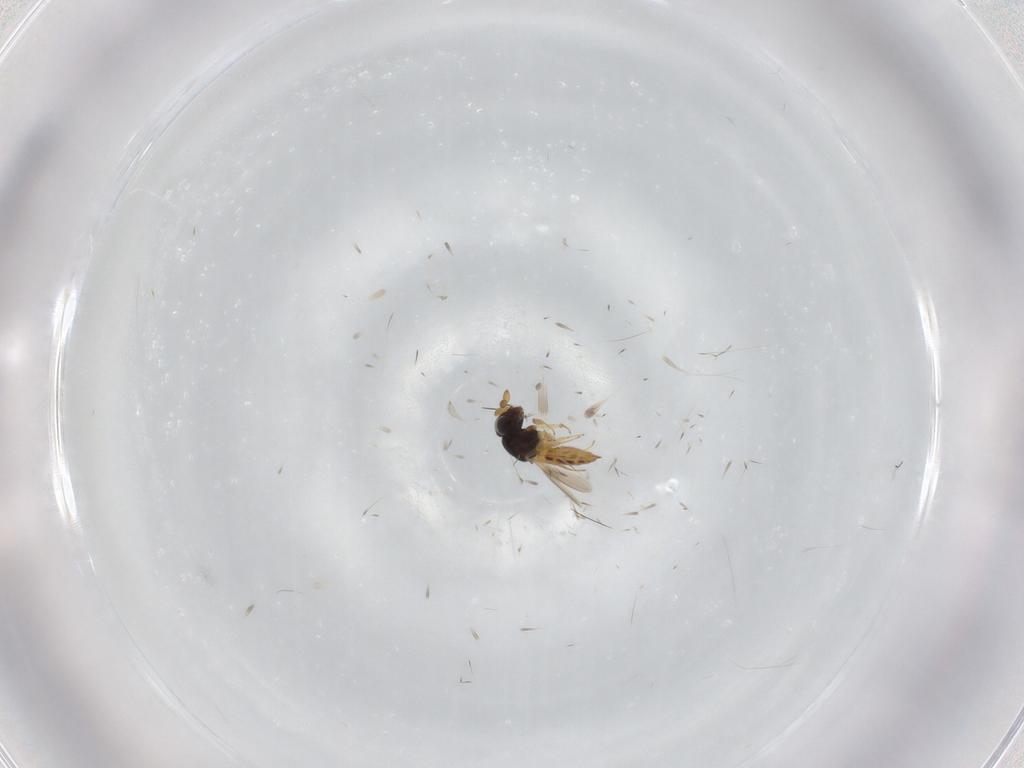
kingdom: Animalia
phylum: Arthropoda
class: Insecta
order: Hymenoptera
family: Scelionidae
